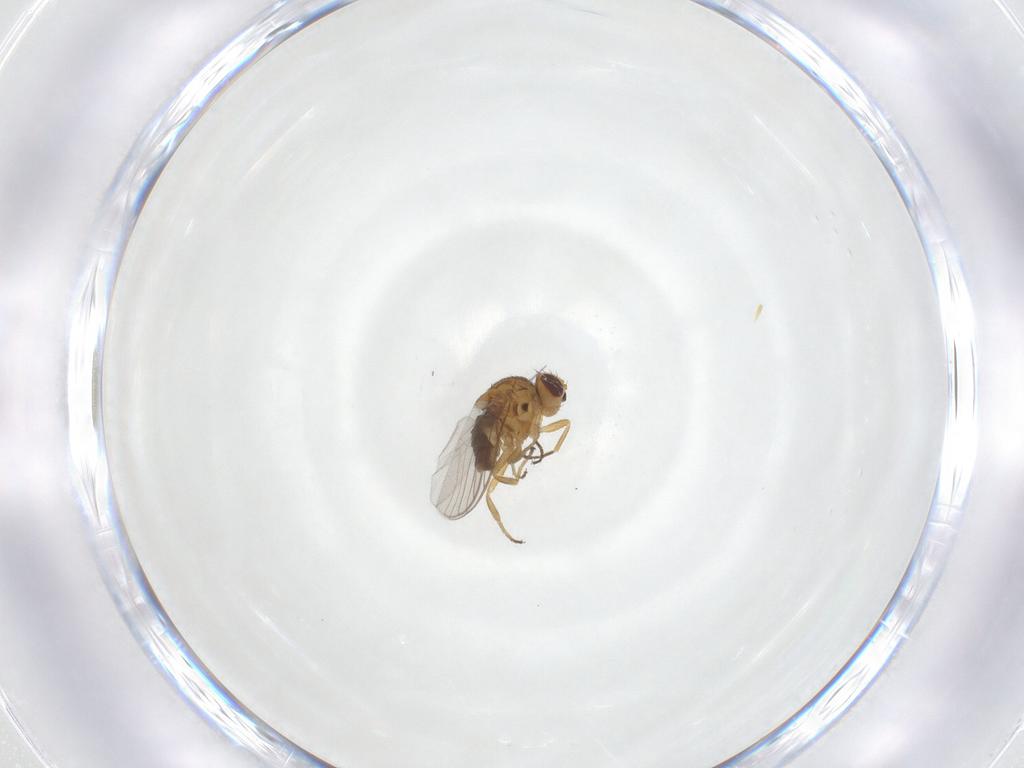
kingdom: Animalia
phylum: Arthropoda
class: Insecta
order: Diptera
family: Chloropidae
